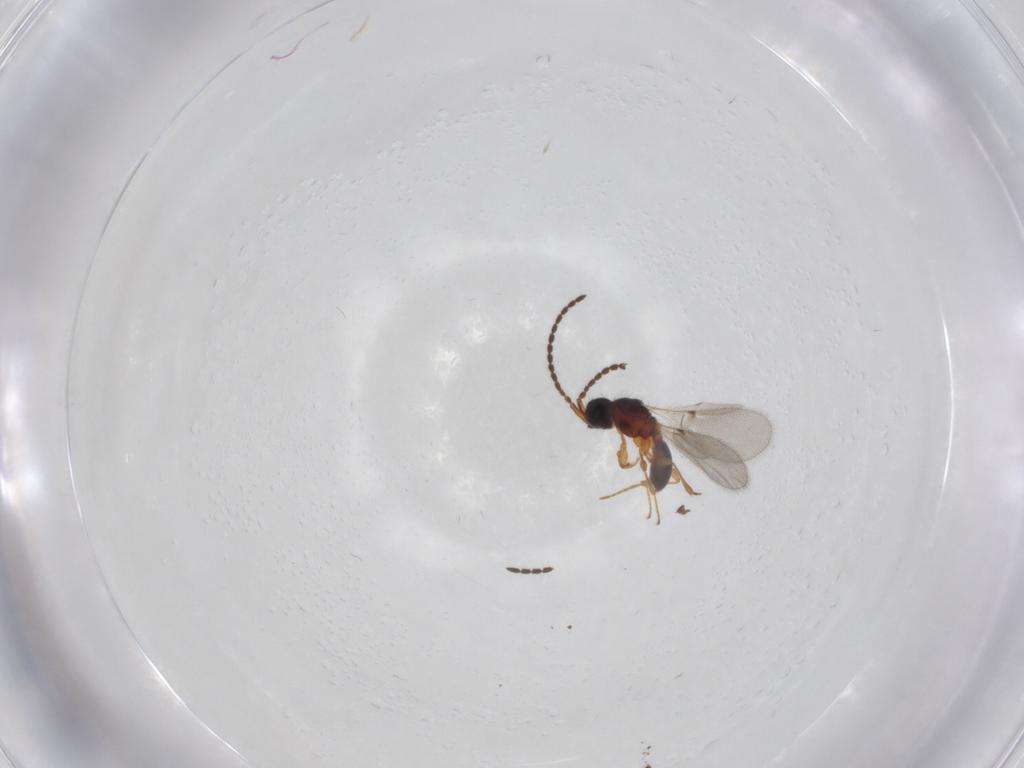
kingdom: Animalia
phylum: Arthropoda
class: Insecta
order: Hymenoptera
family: Diapriidae
